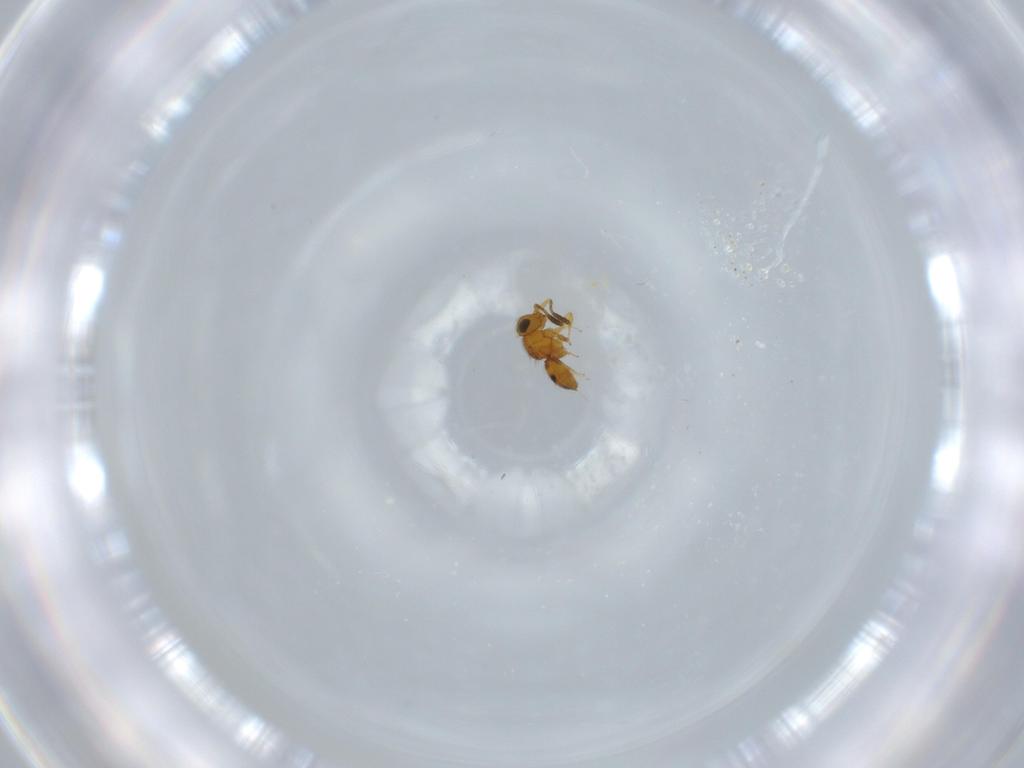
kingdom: Animalia
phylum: Arthropoda
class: Insecta
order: Hymenoptera
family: Scelionidae
